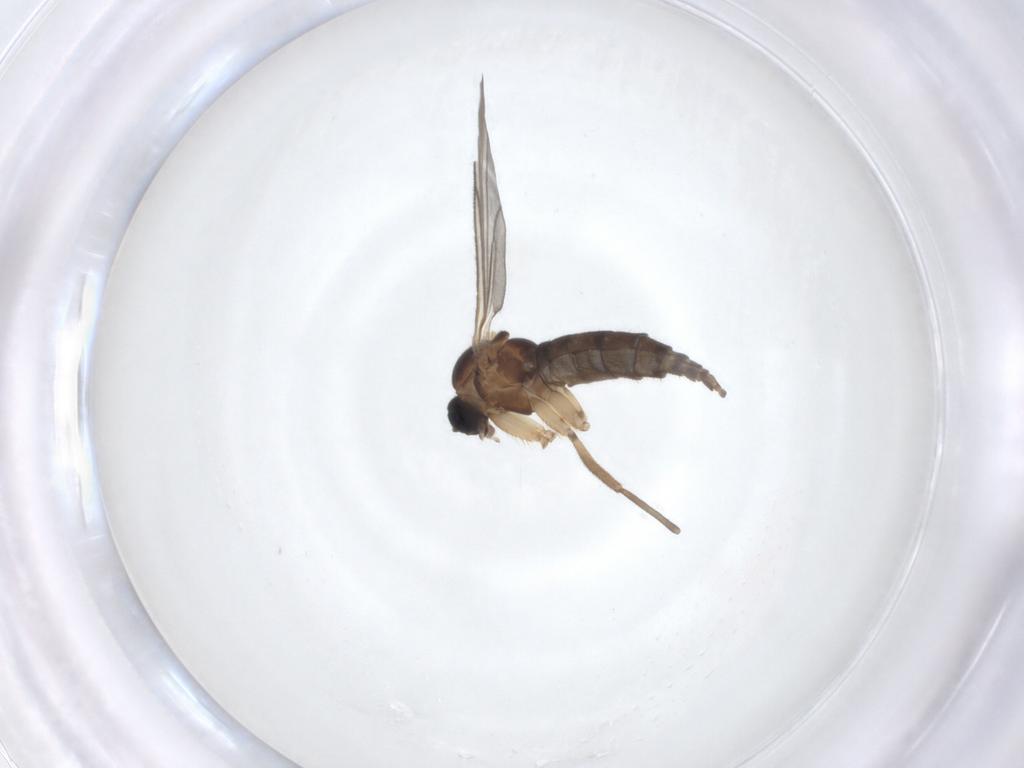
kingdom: Animalia
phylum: Arthropoda
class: Insecta
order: Diptera
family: Sciaridae
